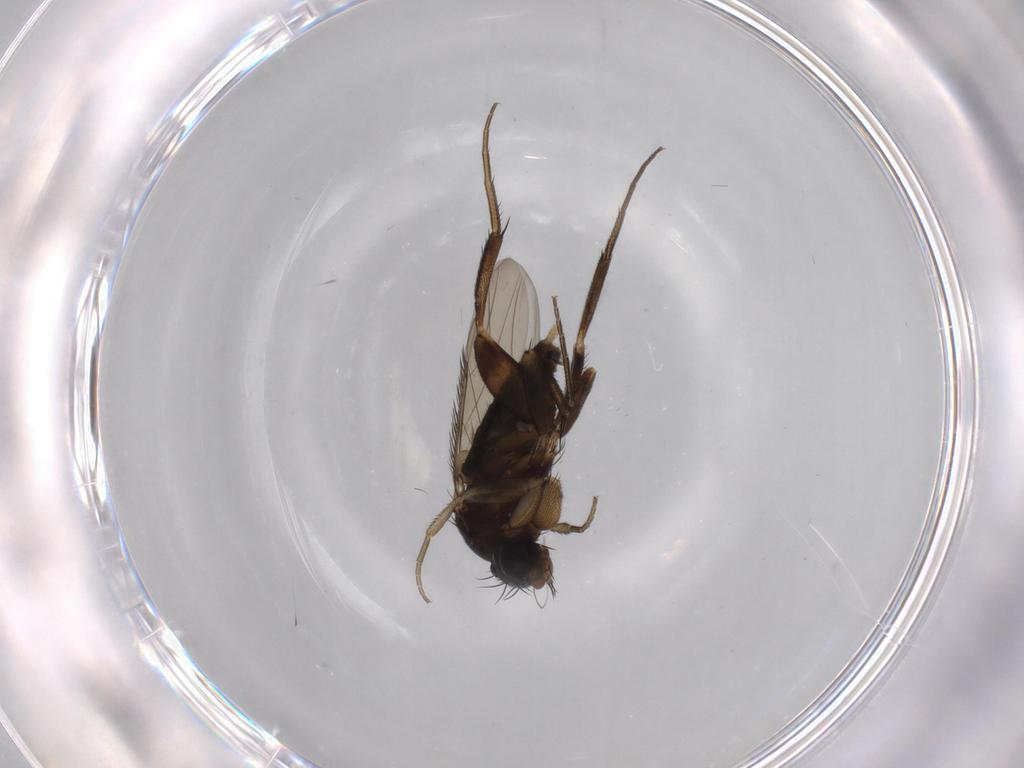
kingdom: Animalia
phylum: Arthropoda
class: Insecta
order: Diptera
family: Phoridae
